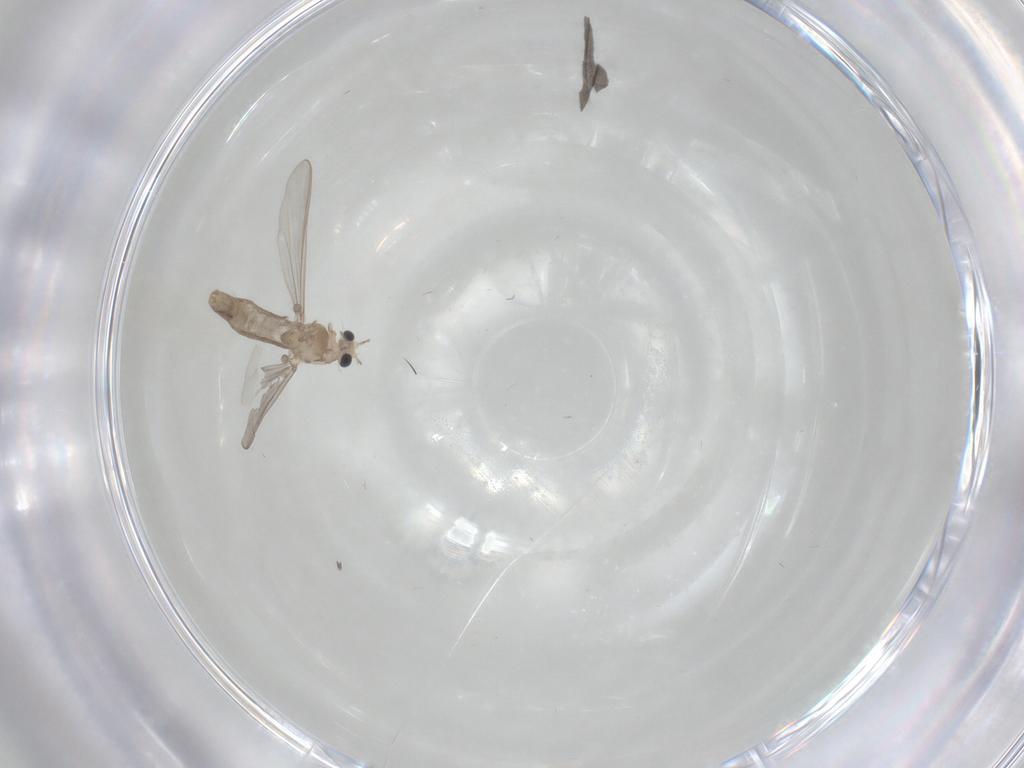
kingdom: Animalia
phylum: Arthropoda
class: Insecta
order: Diptera
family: Chironomidae
